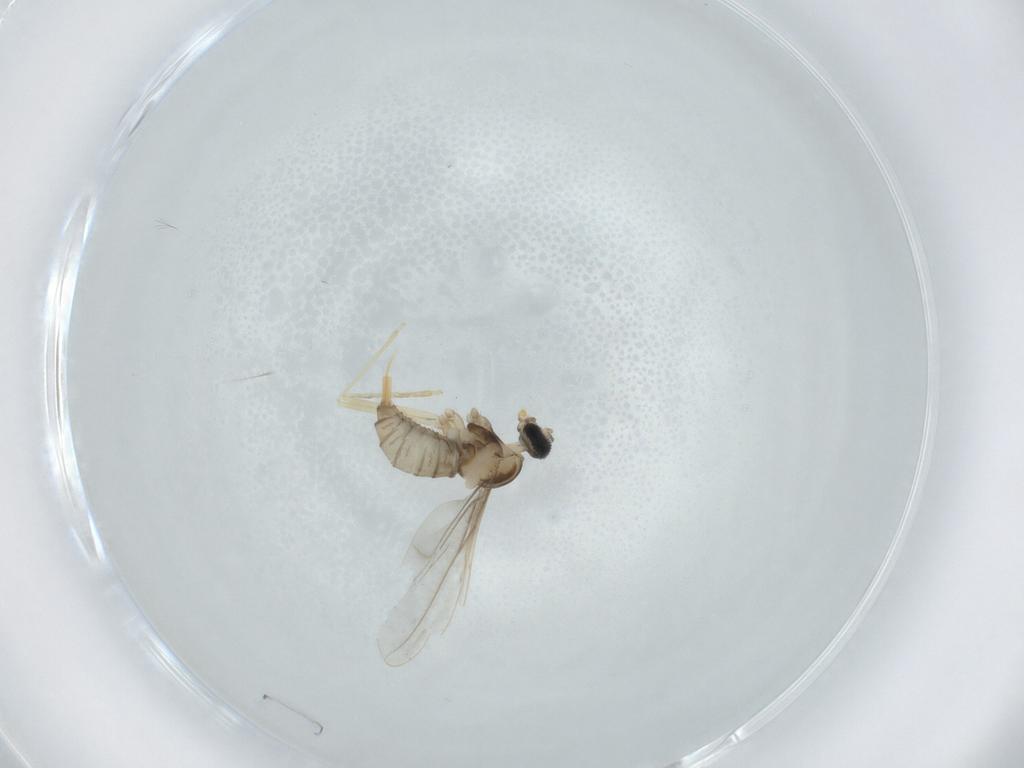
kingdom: Animalia
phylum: Arthropoda
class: Insecta
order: Diptera
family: Cecidomyiidae
